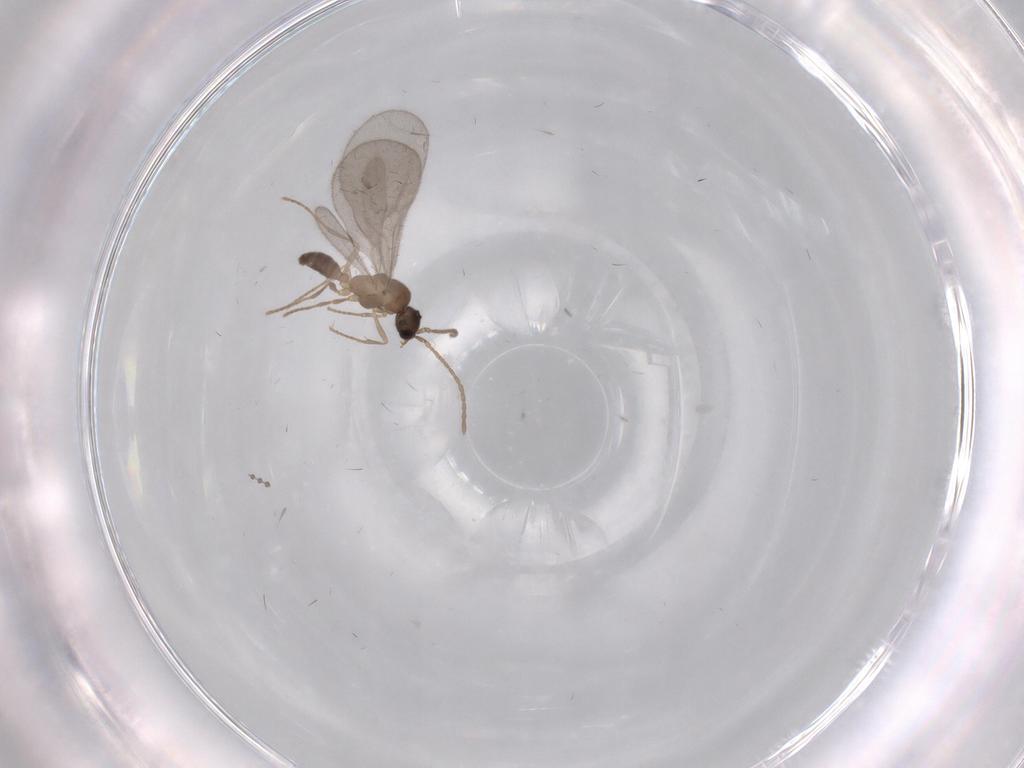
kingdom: Animalia
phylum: Arthropoda
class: Insecta
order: Hymenoptera
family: Formicidae
